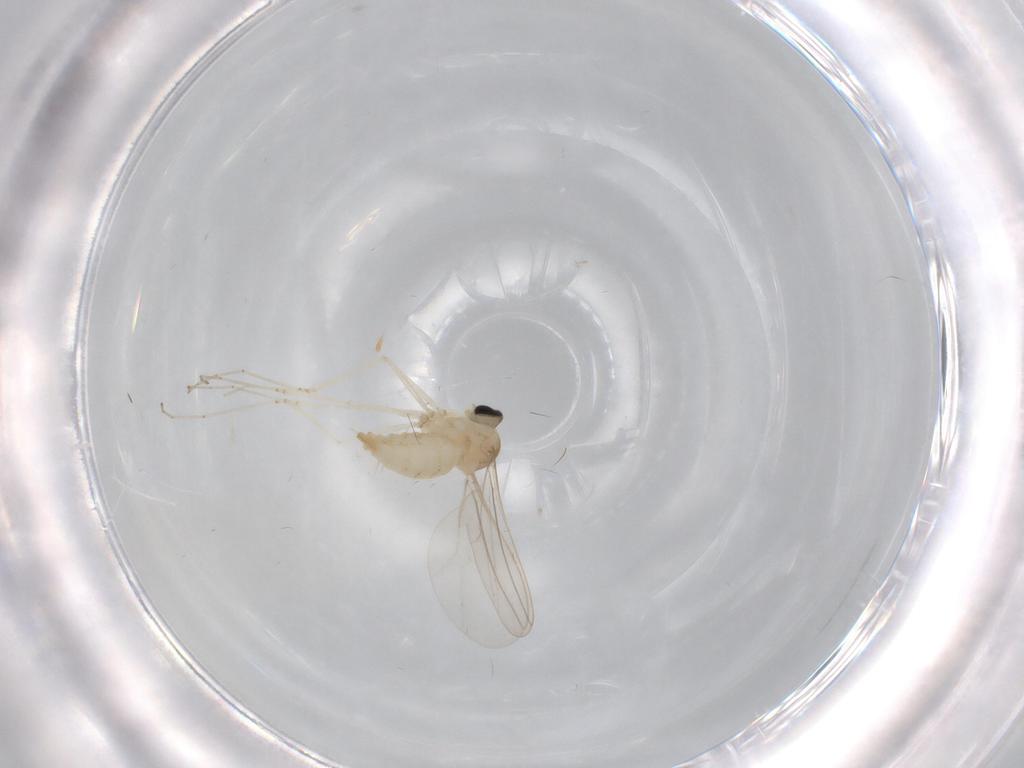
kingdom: Animalia
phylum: Arthropoda
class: Insecta
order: Diptera
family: Cecidomyiidae
